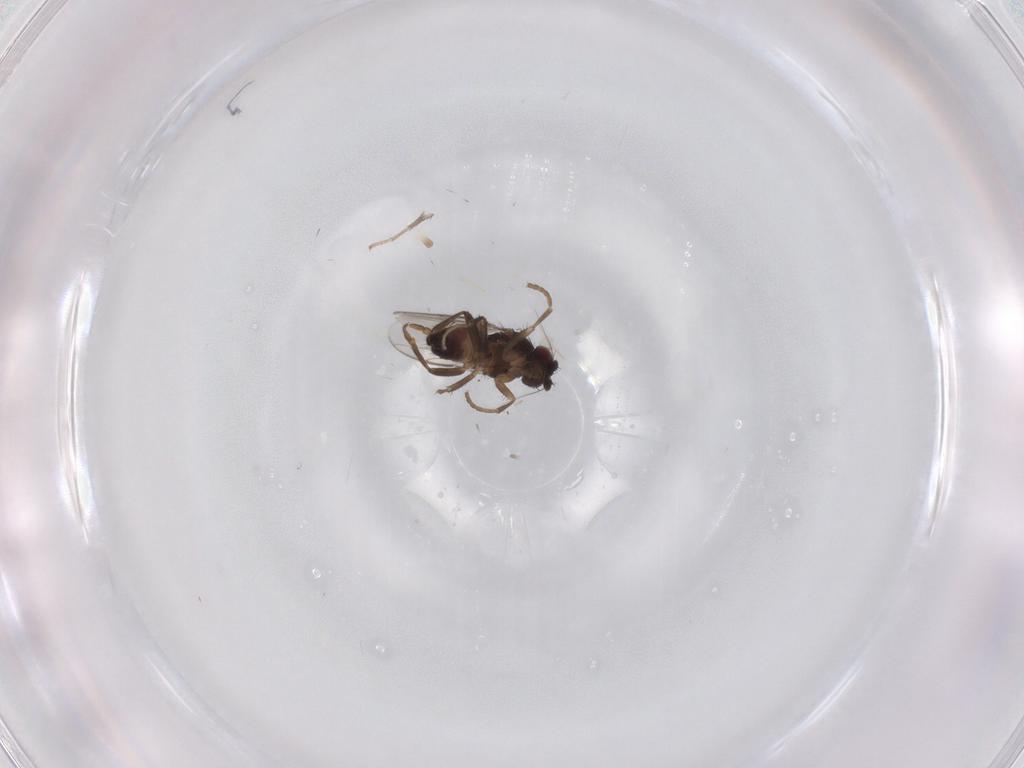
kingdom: Animalia
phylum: Arthropoda
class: Insecta
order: Diptera
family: Sphaeroceridae
